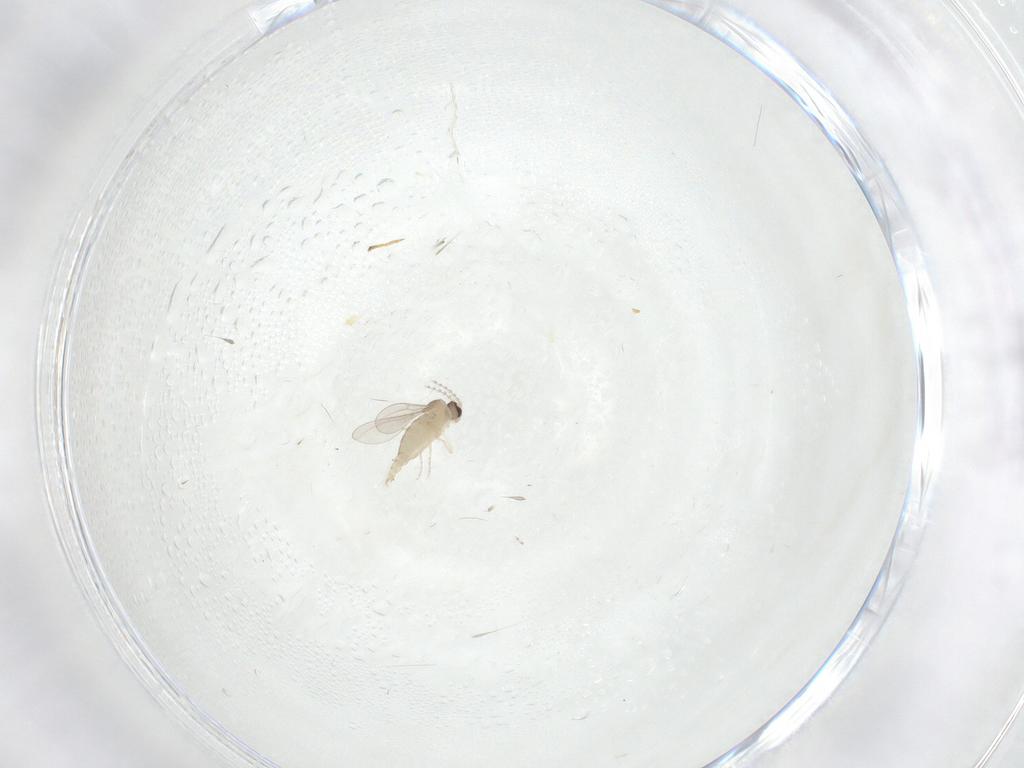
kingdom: Animalia
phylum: Arthropoda
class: Insecta
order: Diptera
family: Cecidomyiidae
